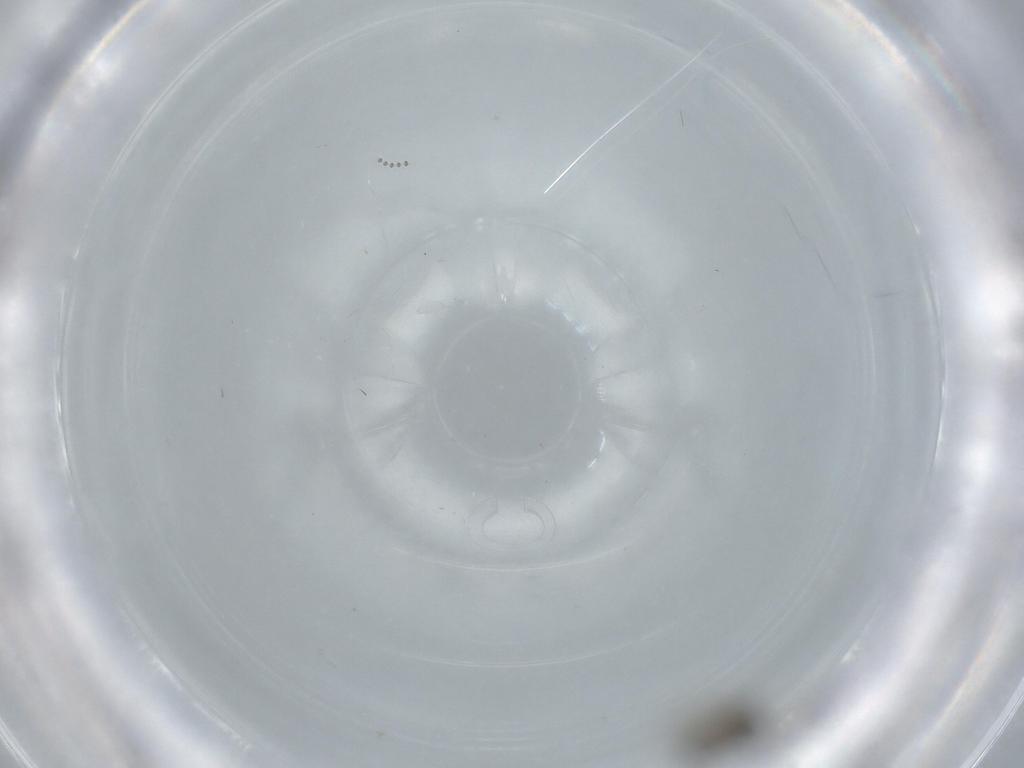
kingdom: Animalia
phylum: Arthropoda
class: Insecta
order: Diptera
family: Psychodidae
